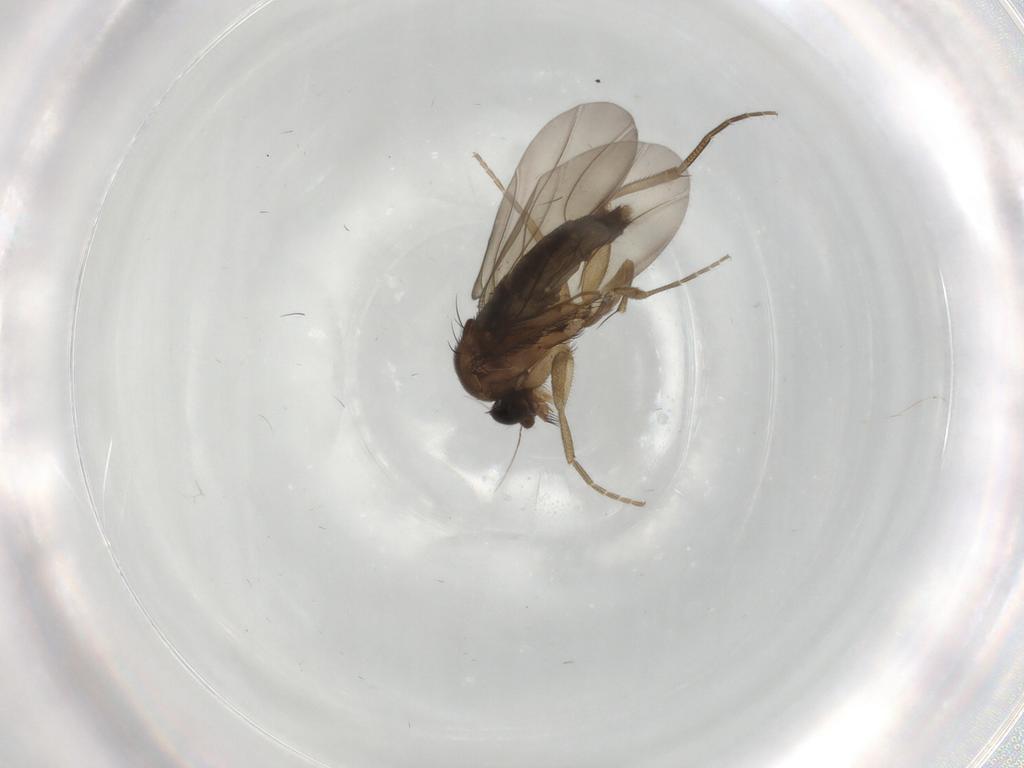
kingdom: Animalia
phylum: Arthropoda
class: Insecta
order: Diptera
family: Phoridae
